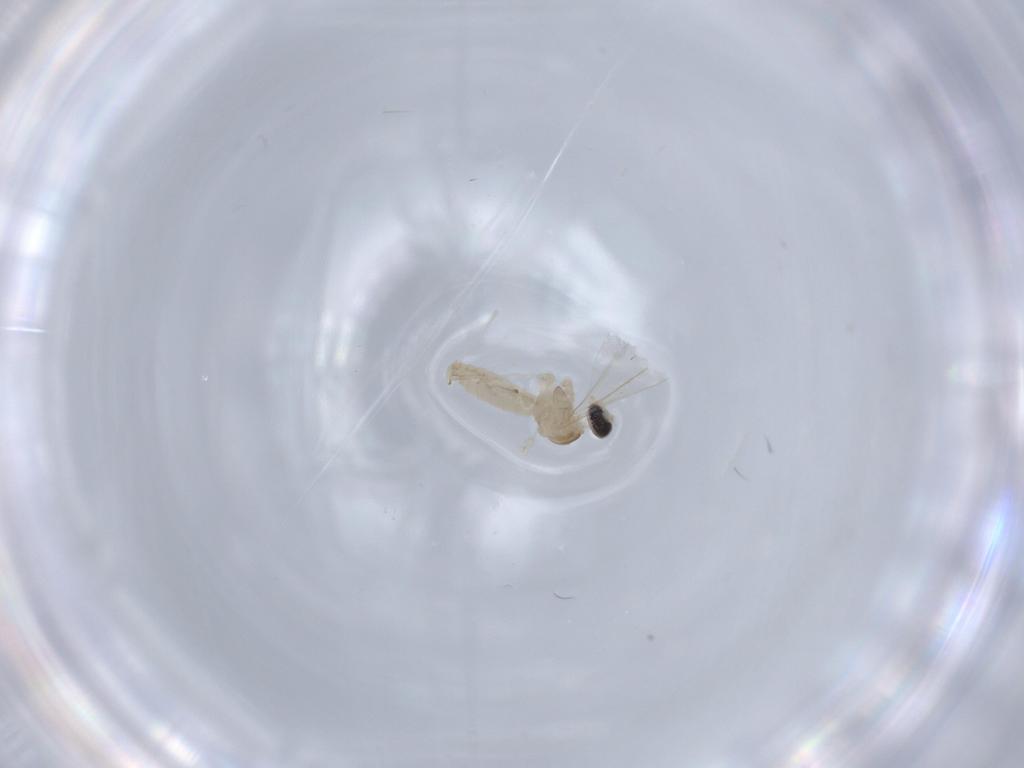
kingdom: Animalia
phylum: Arthropoda
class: Insecta
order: Diptera
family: Cecidomyiidae
